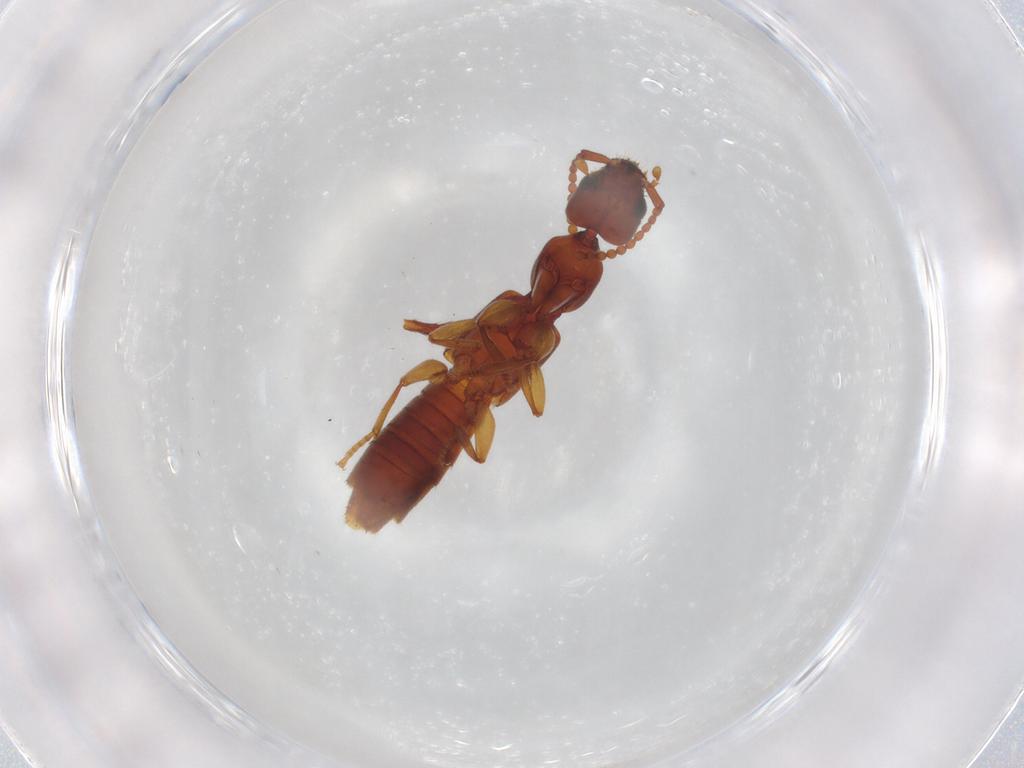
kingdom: Animalia
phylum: Arthropoda
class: Insecta
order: Coleoptera
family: Staphylinidae
